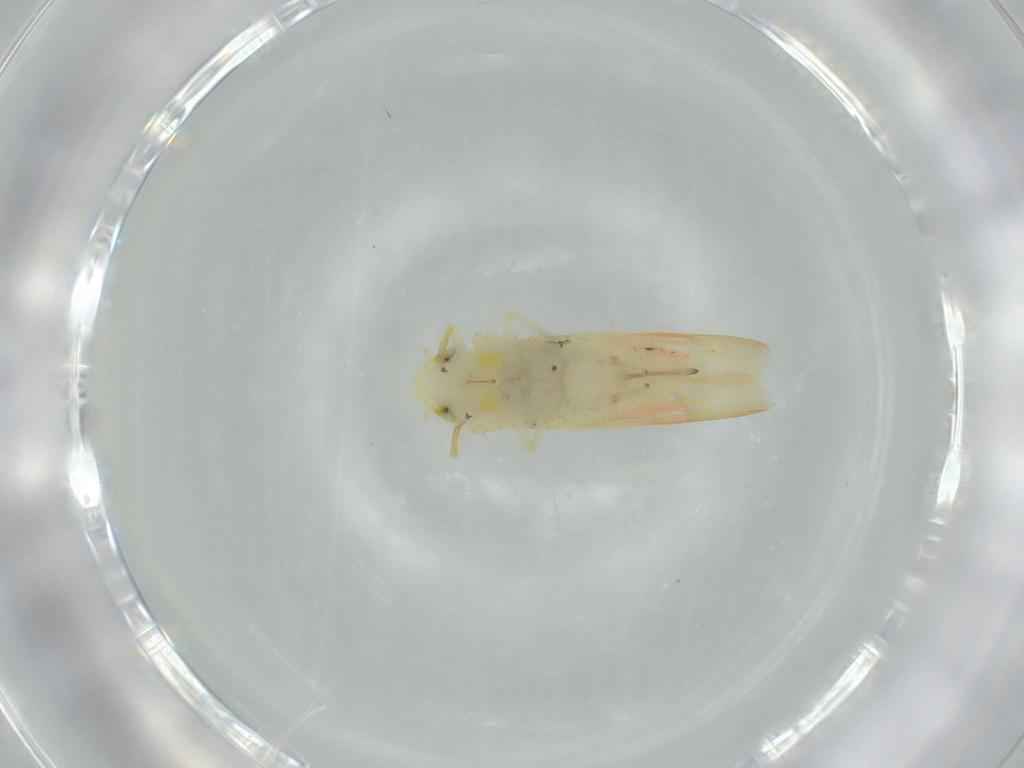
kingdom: Animalia
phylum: Arthropoda
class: Insecta
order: Hemiptera
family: Cicadellidae
